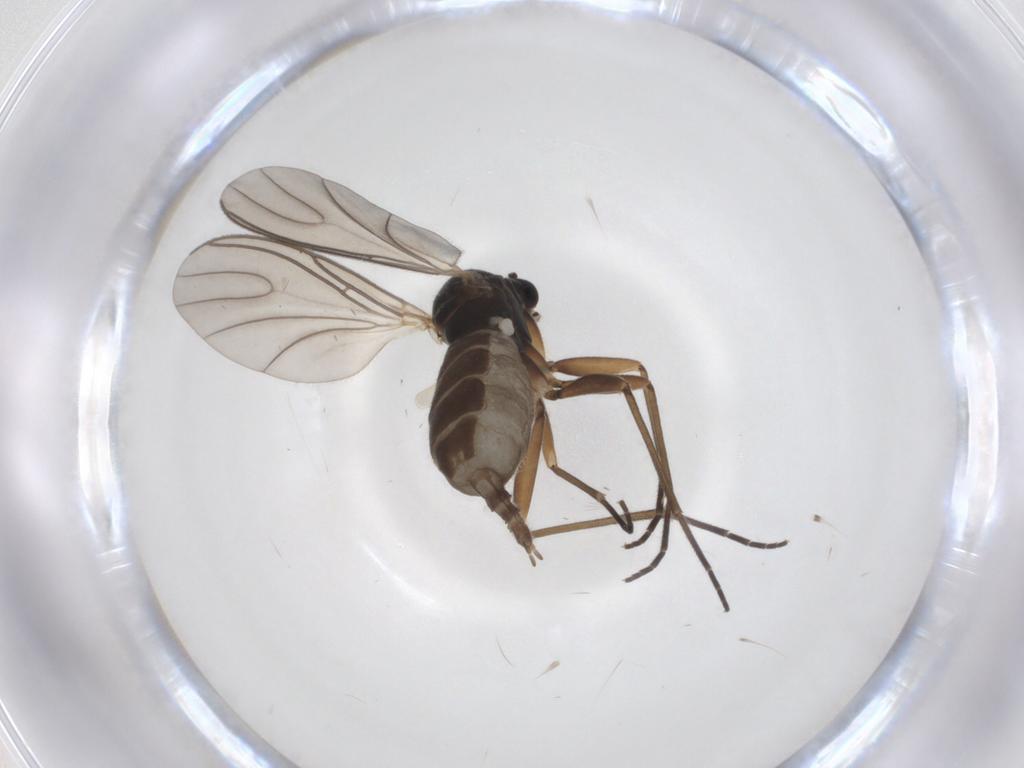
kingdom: Animalia
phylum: Arthropoda
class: Insecta
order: Diptera
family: Sciaridae
